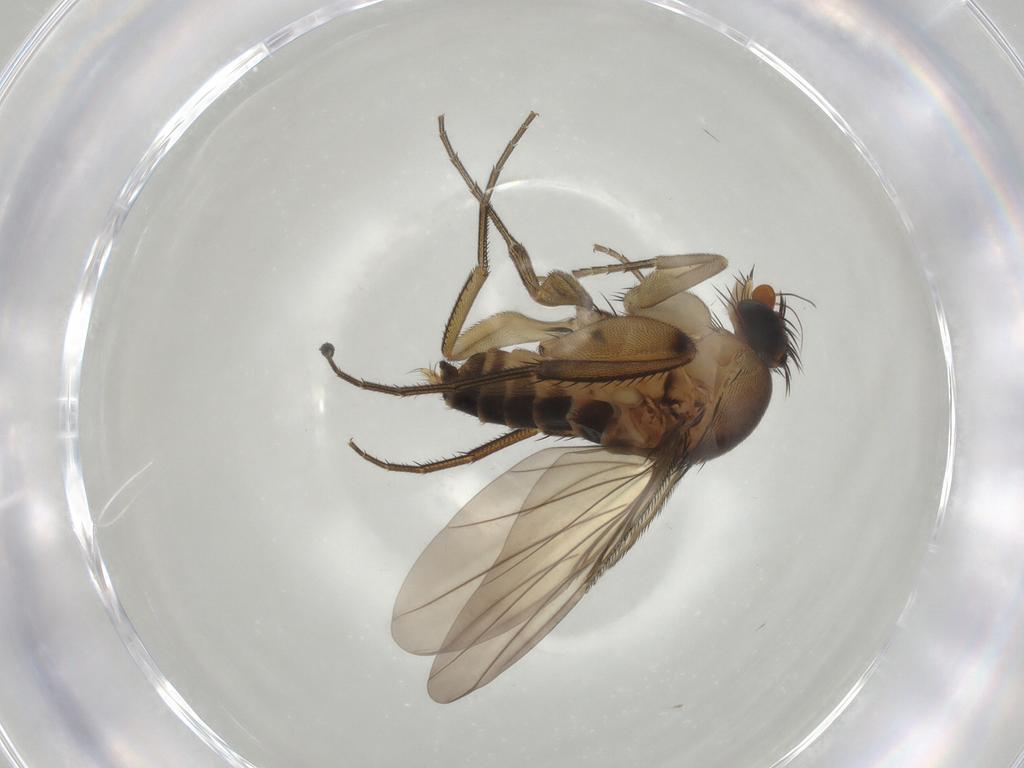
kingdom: Animalia
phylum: Arthropoda
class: Insecta
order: Diptera
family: Phoridae
